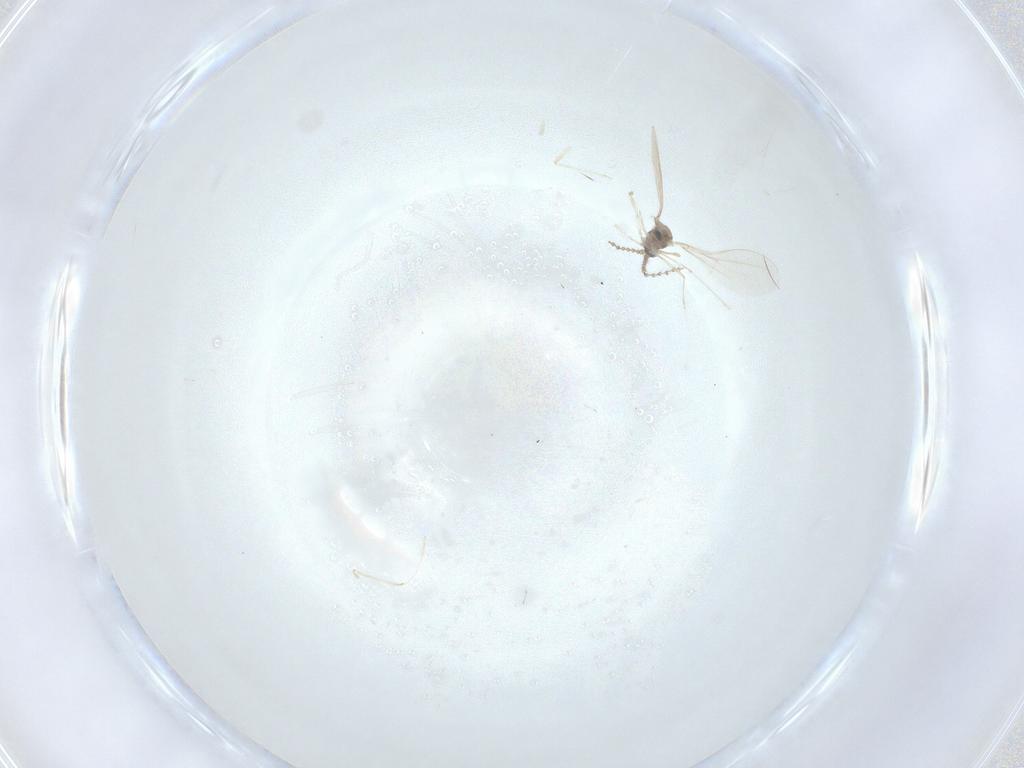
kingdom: Animalia
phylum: Arthropoda
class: Insecta
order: Diptera
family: Cecidomyiidae
